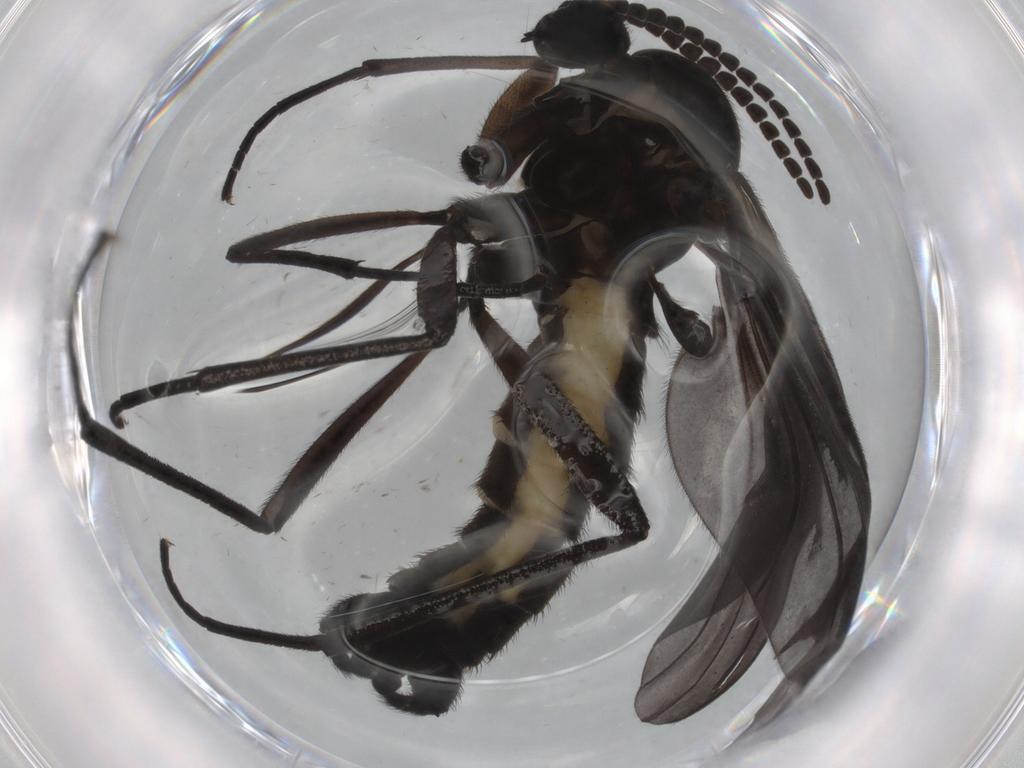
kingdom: Animalia
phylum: Arthropoda
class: Insecta
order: Diptera
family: Sciaridae
